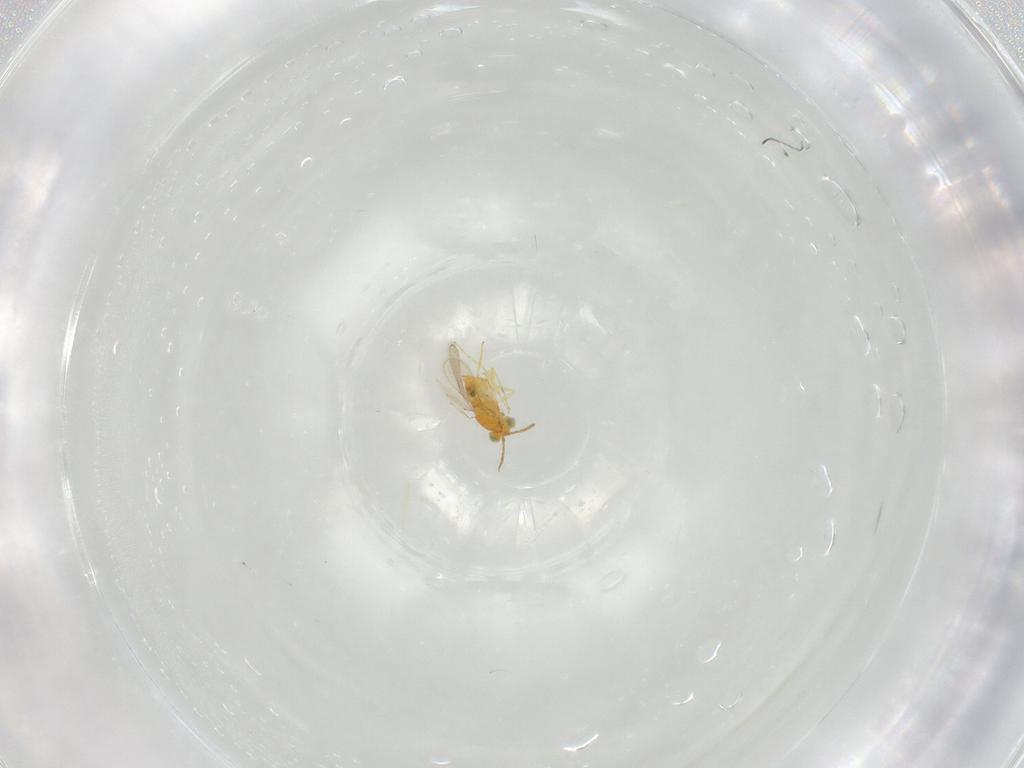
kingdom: Animalia
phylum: Arthropoda
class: Insecta
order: Hymenoptera
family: Aphelinidae
